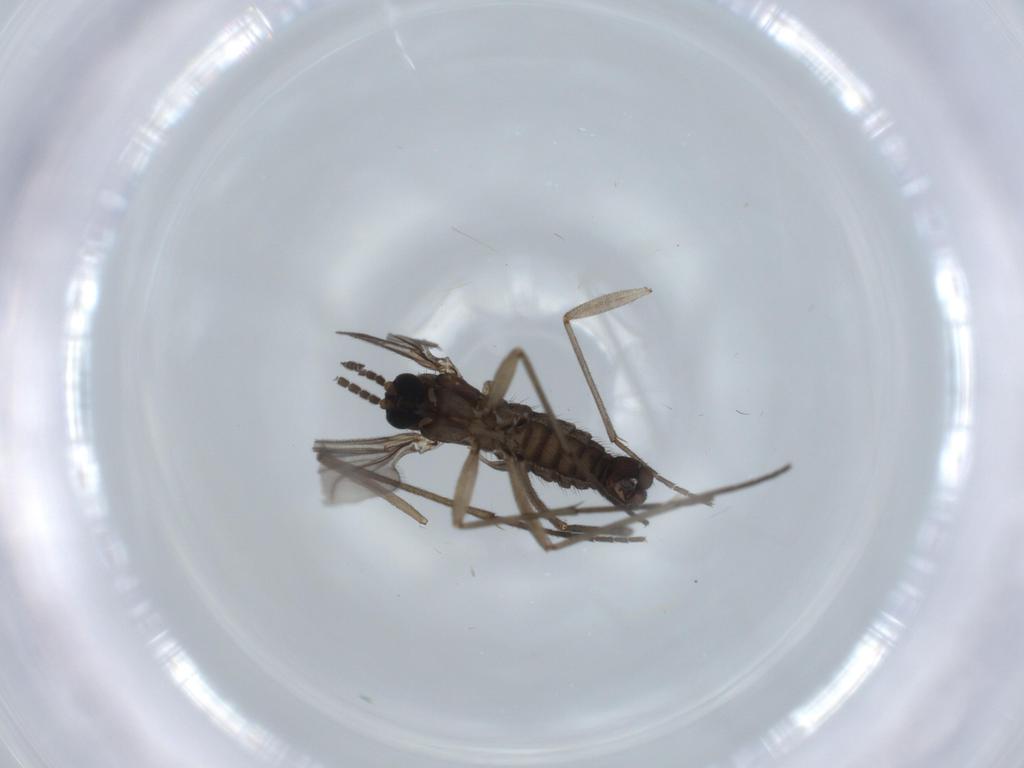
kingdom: Animalia
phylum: Arthropoda
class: Insecta
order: Diptera
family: Sciaridae
